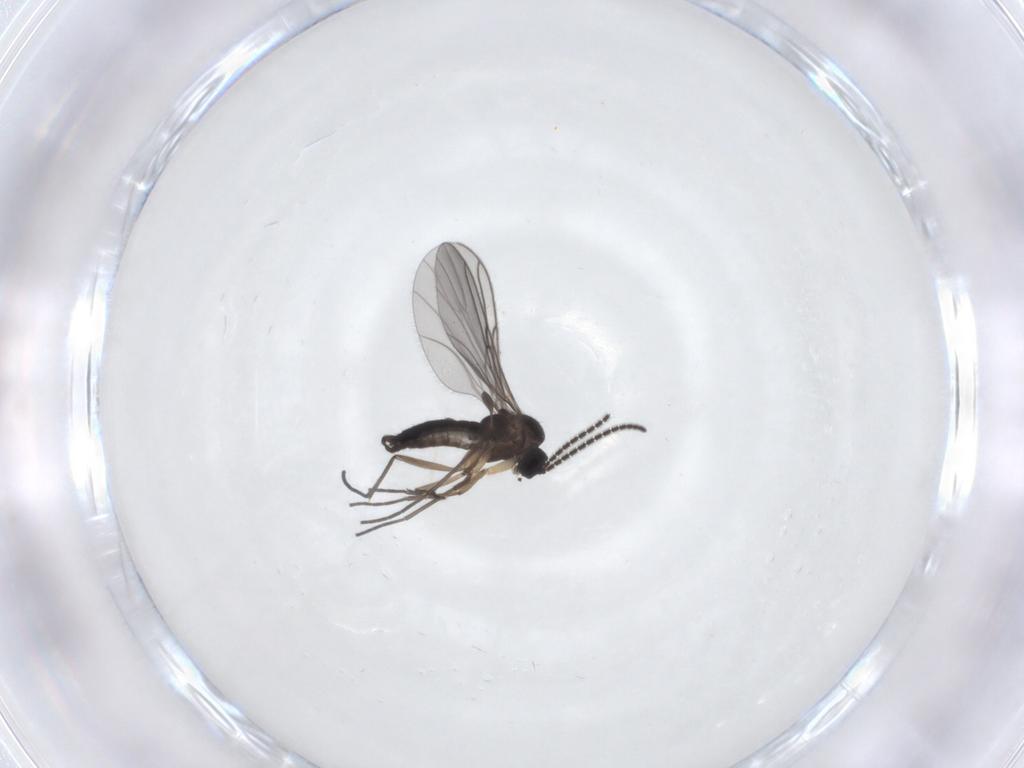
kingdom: Animalia
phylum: Arthropoda
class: Insecta
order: Diptera
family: Sciaridae
